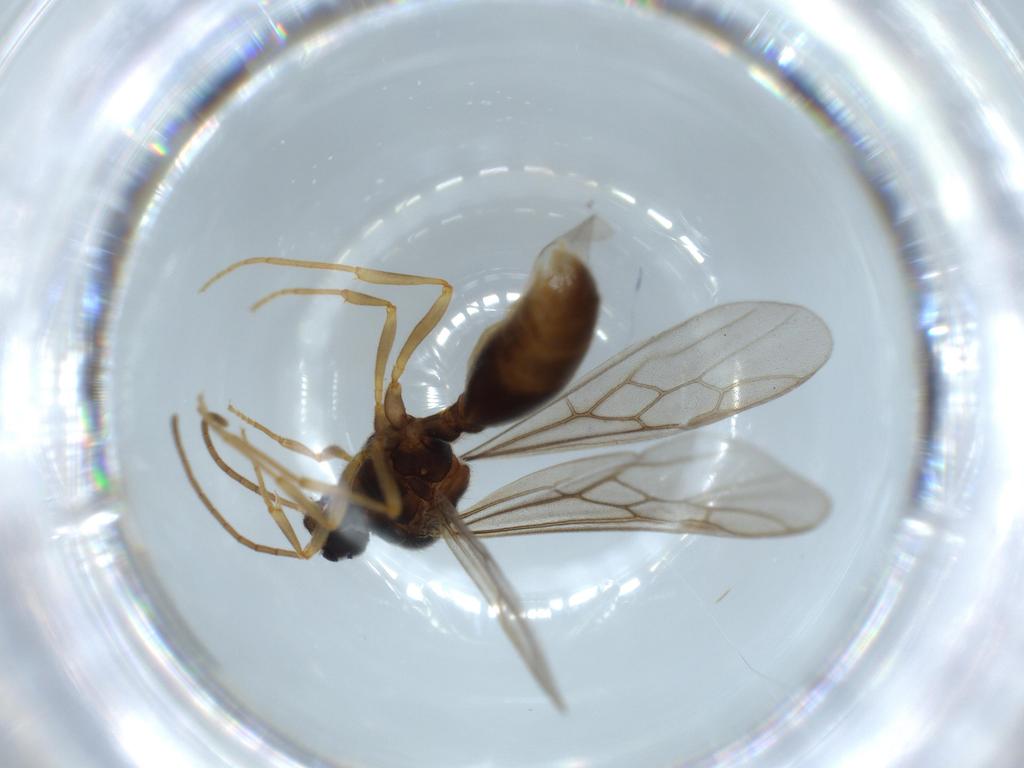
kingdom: Animalia
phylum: Arthropoda
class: Insecta
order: Hymenoptera
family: Formicidae
